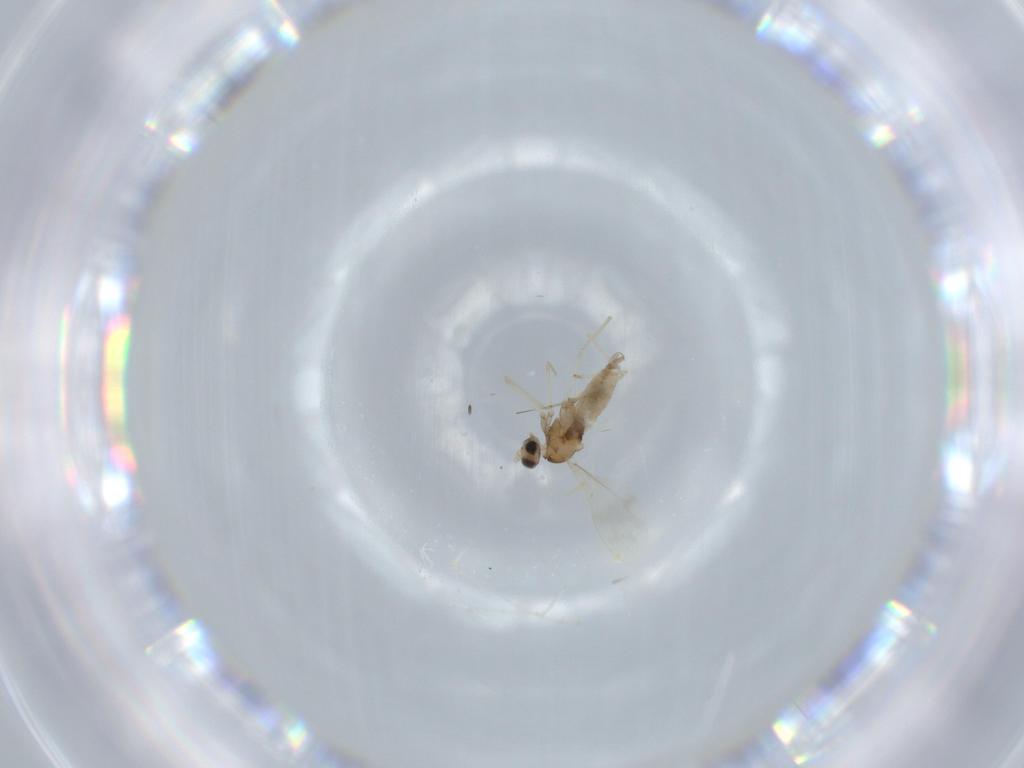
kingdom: Animalia
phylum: Arthropoda
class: Insecta
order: Diptera
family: Cecidomyiidae
